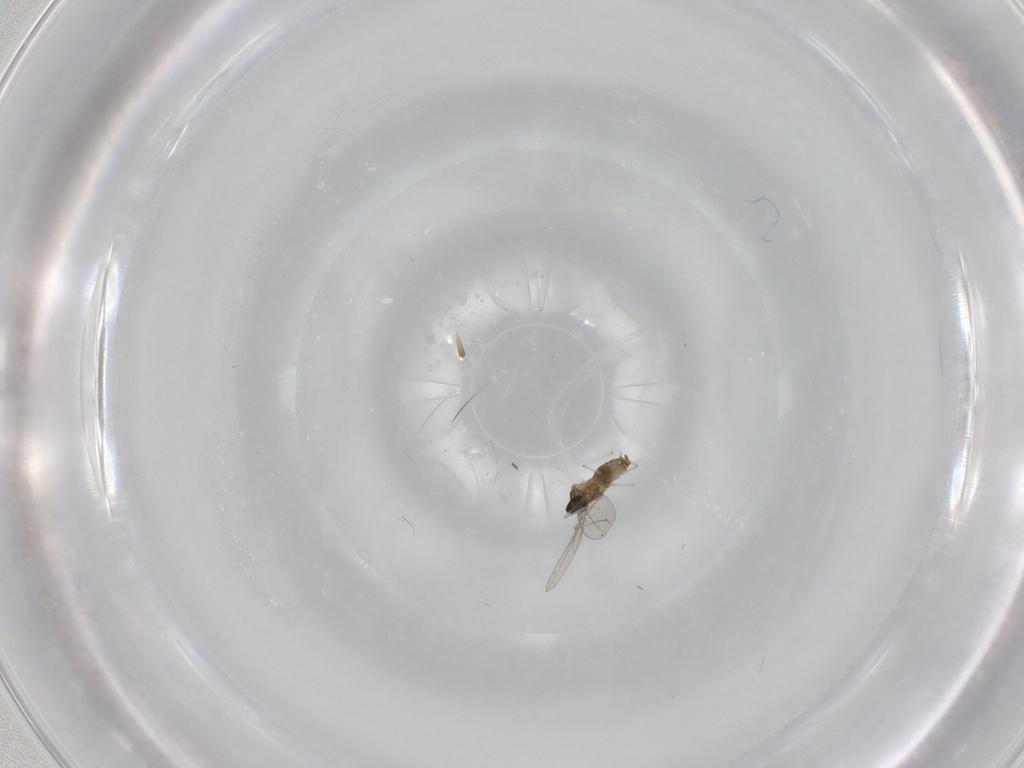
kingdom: Animalia
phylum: Arthropoda
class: Insecta
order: Diptera
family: Cecidomyiidae
